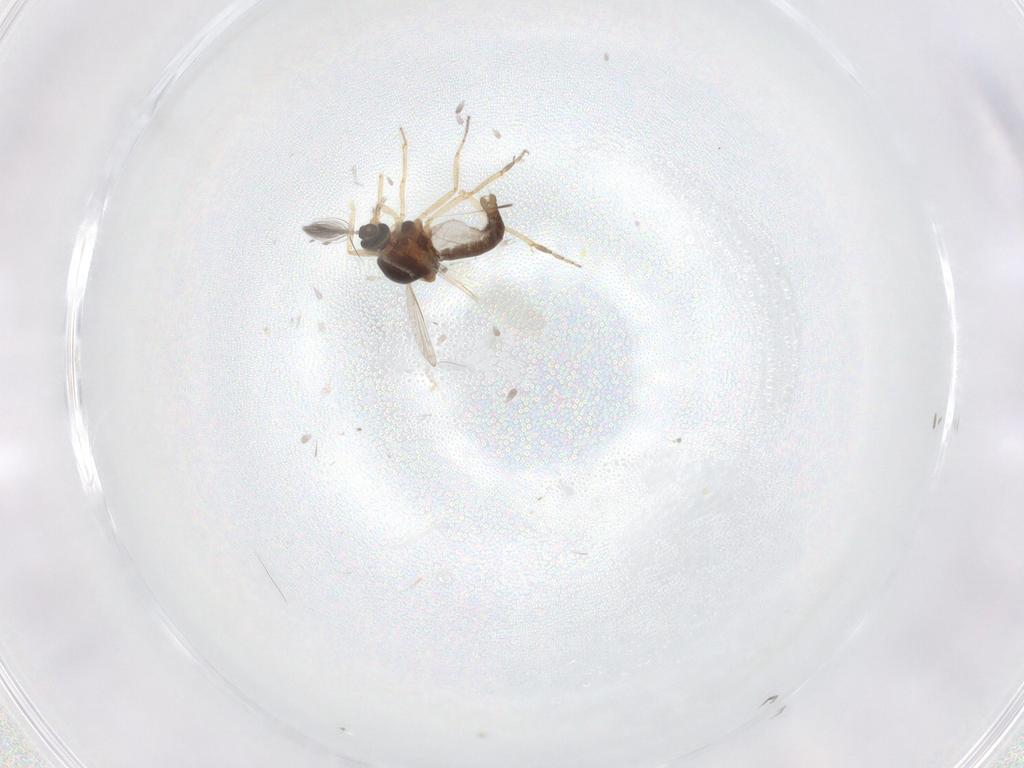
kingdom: Animalia
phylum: Arthropoda
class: Insecta
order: Diptera
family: Ceratopogonidae
